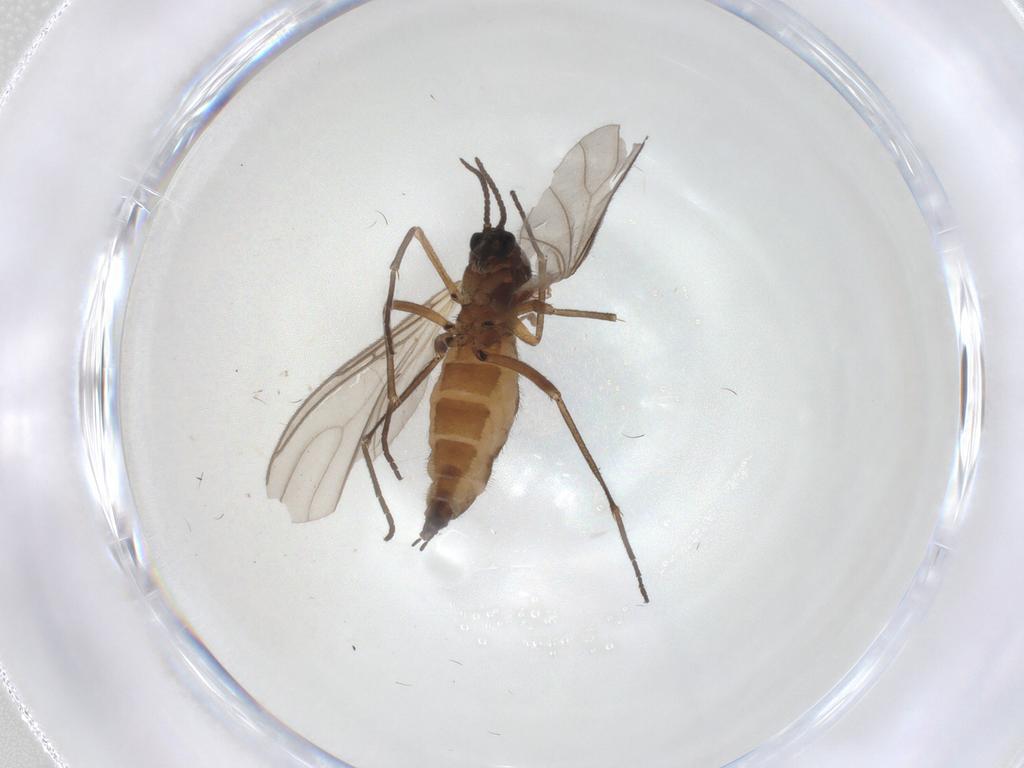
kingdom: Animalia
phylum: Arthropoda
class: Insecta
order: Diptera
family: Sciaridae
